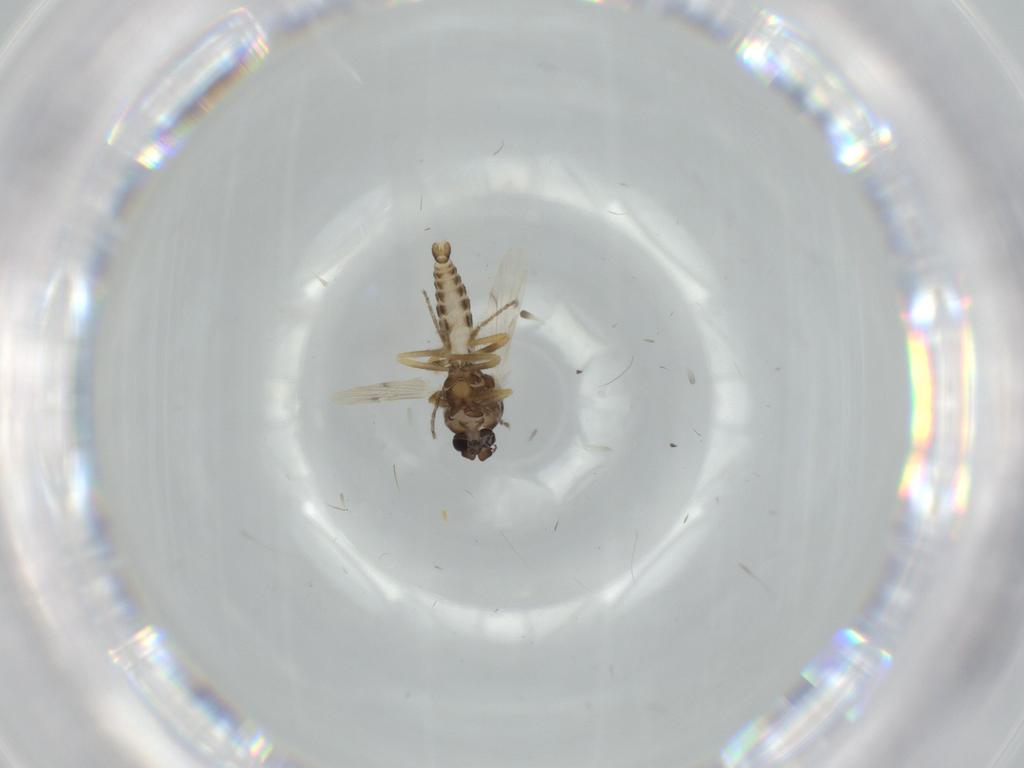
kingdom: Animalia
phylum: Arthropoda
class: Insecta
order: Diptera
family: Ceratopogonidae
